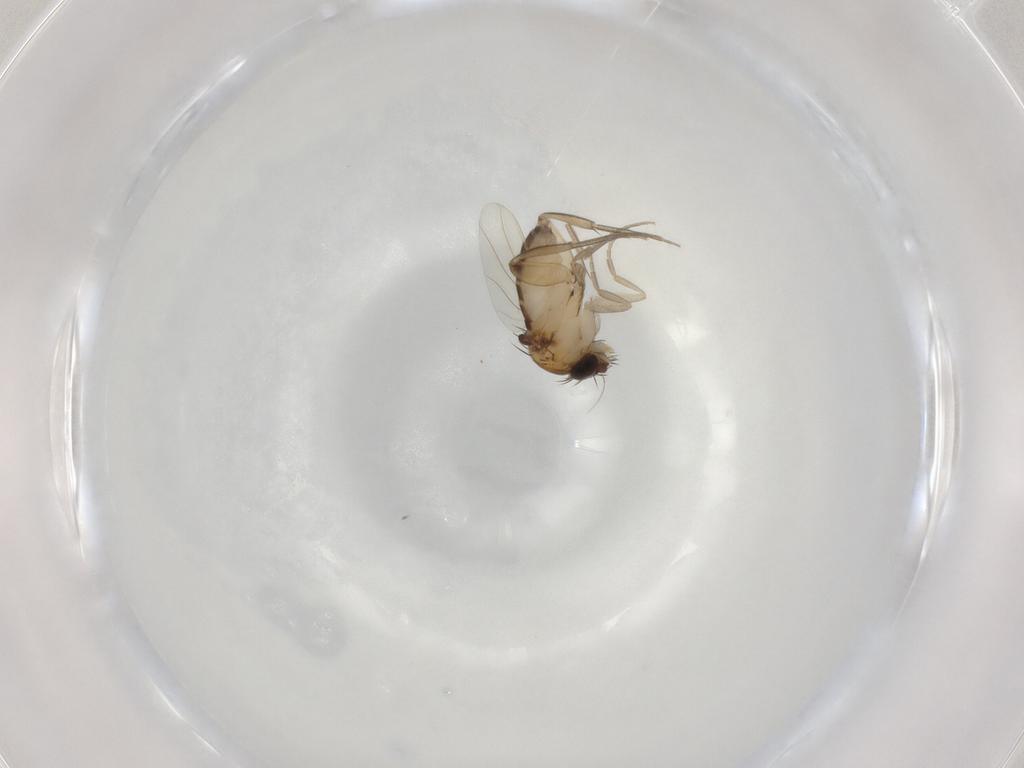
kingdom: Animalia
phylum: Arthropoda
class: Insecta
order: Diptera
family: Phoridae
